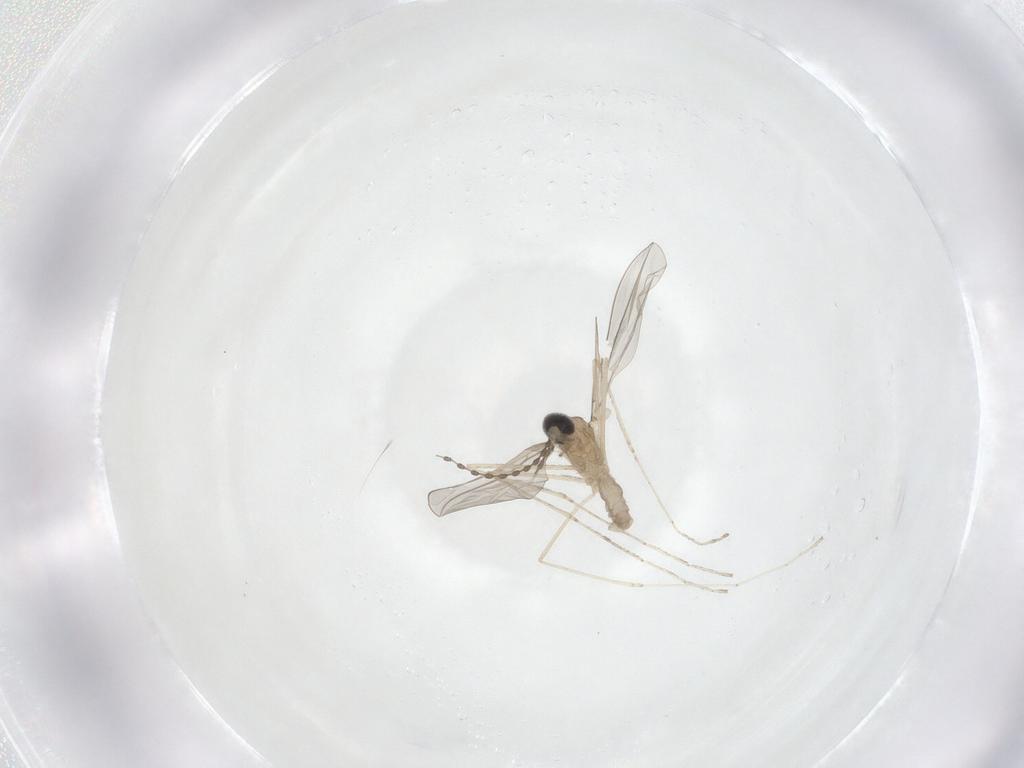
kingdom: Animalia
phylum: Arthropoda
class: Insecta
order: Diptera
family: Cecidomyiidae
